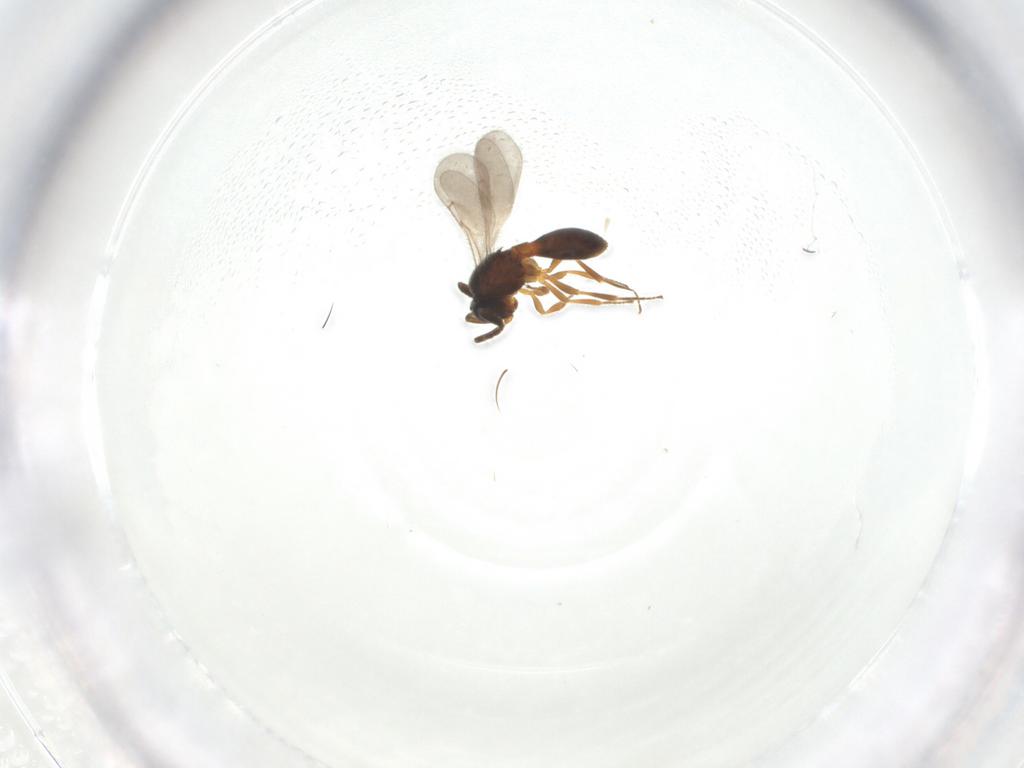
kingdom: Animalia
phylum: Arthropoda
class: Insecta
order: Hymenoptera
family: Scelionidae
